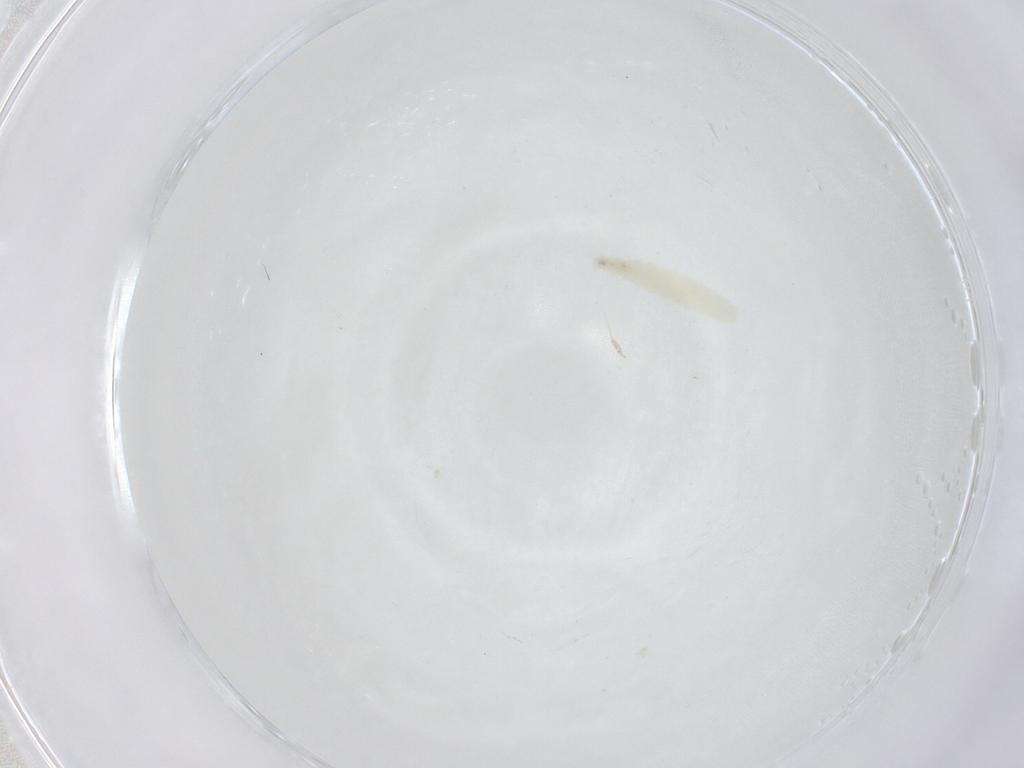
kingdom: Animalia
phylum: Arthropoda
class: Insecta
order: Diptera
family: Sarcophagidae
